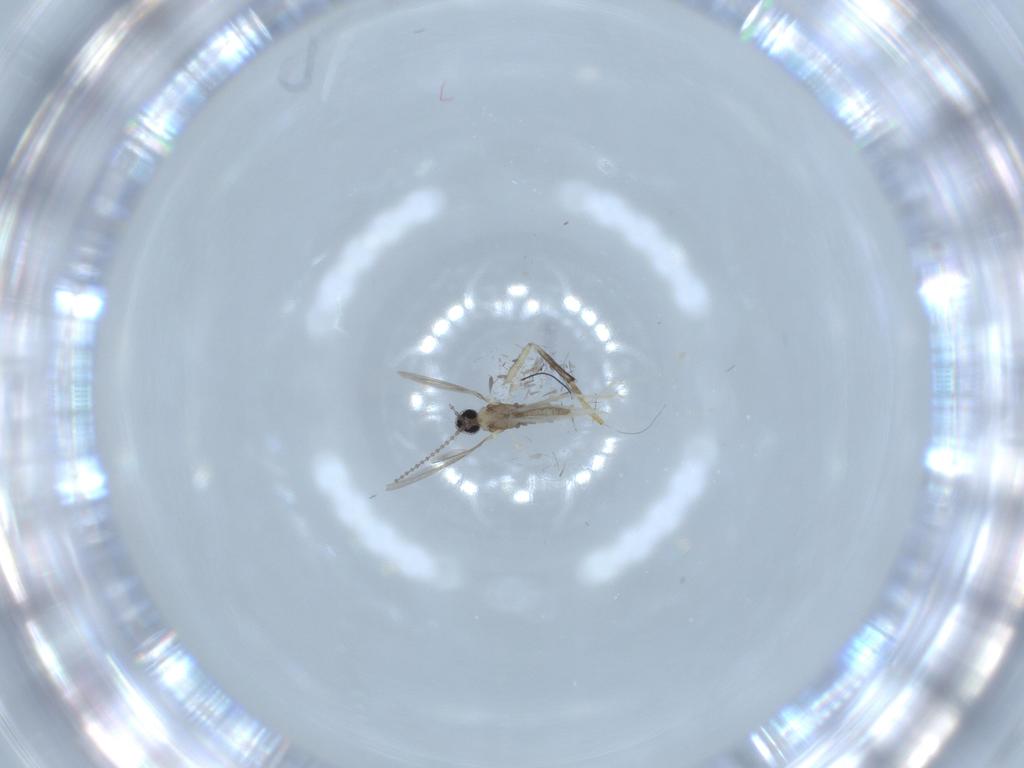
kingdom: Animalia
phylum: Arthropoda
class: Insecta
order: Diptera
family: Cecidomyiidae
